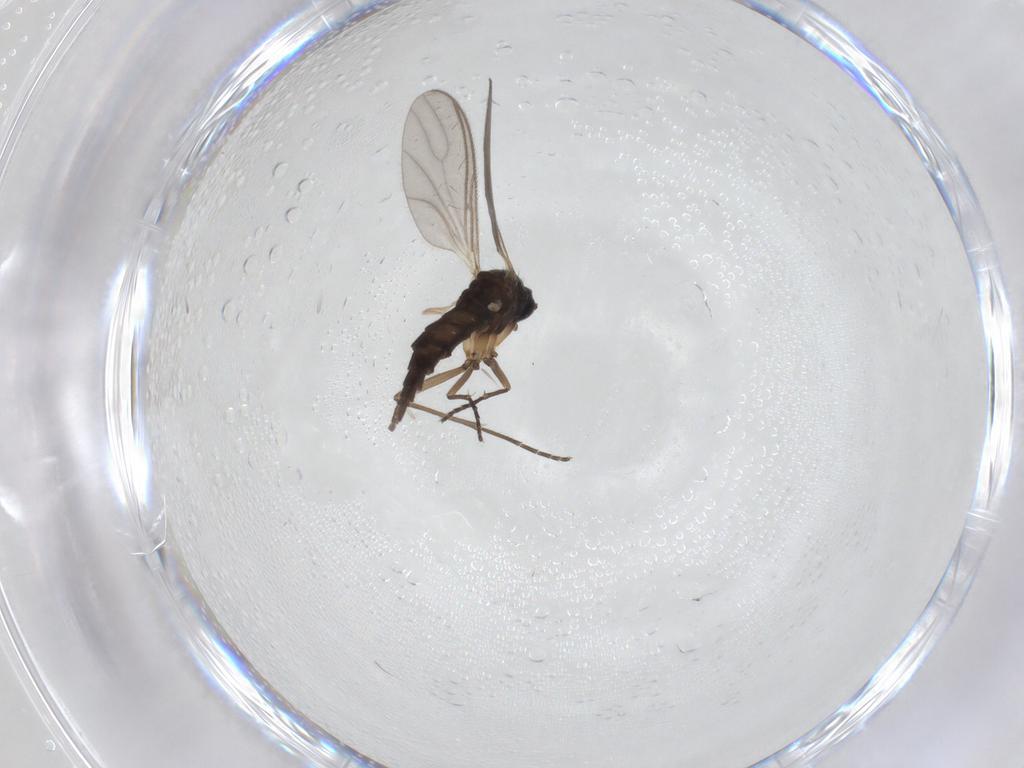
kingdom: Animalia
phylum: Arthropoda
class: Insecta
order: Diptera
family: Sciaridae
